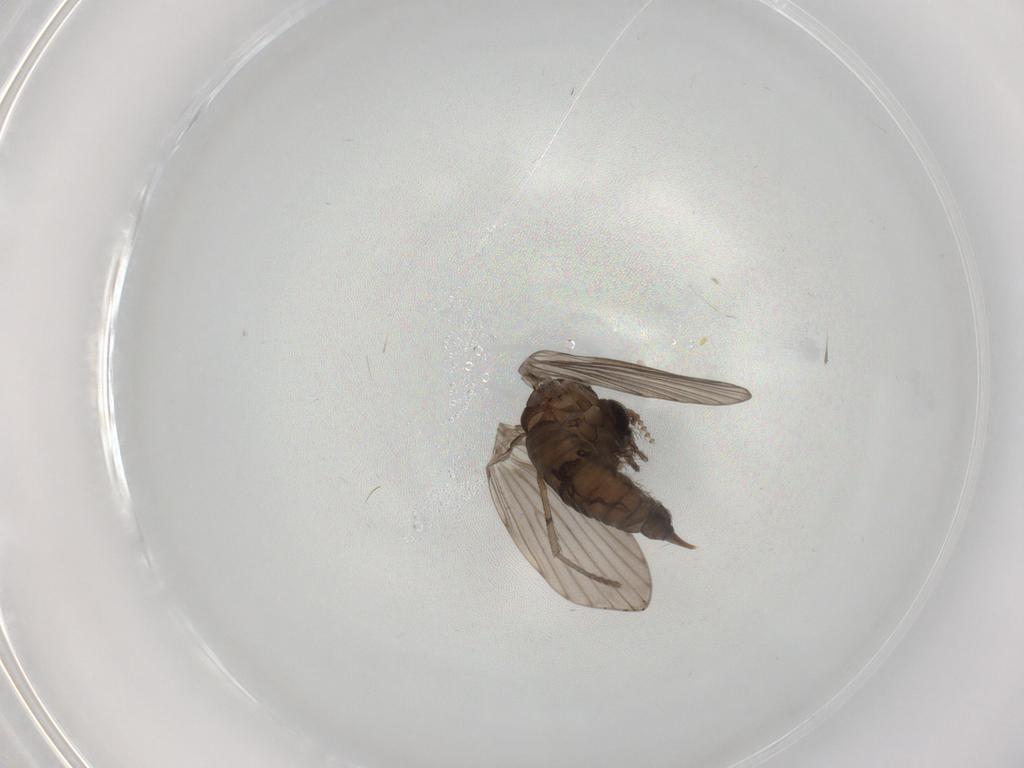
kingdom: Animalia
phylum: Arthropoda
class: Insecta
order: Diptera
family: Psychodidae
